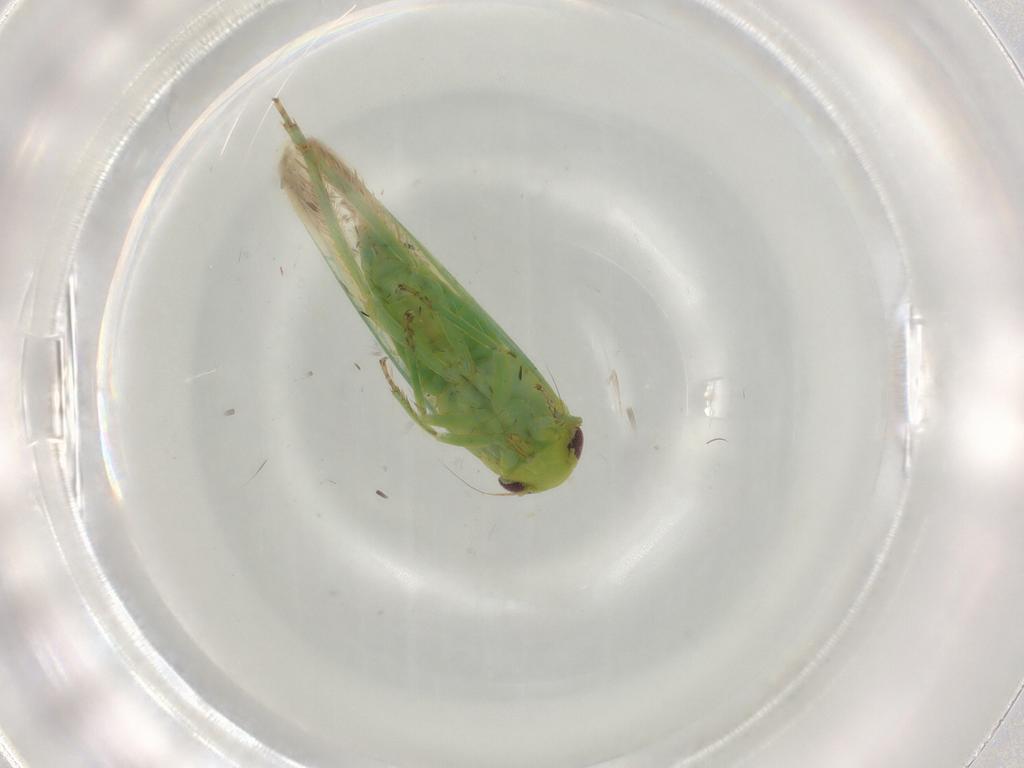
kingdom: Animalia
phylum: Arthropoda
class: Insecta
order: Hemiptera
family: Cicadellidae
